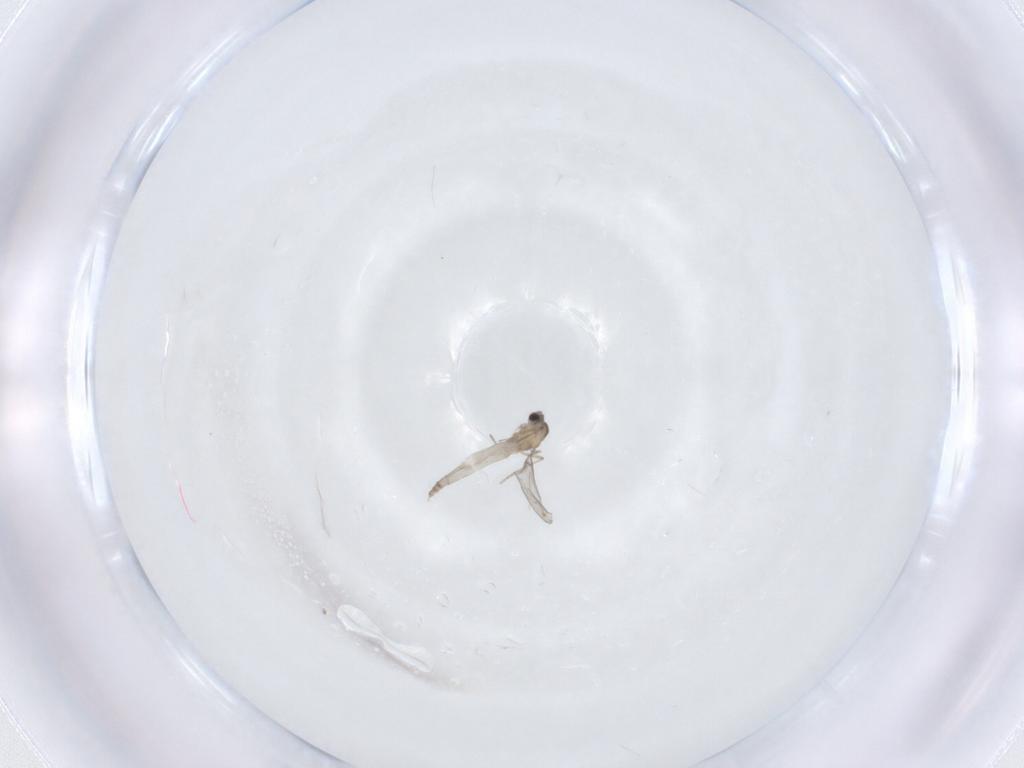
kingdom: Animalia
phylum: Arthropoda
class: Insecta
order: Diptera
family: Cecidomyiidae
